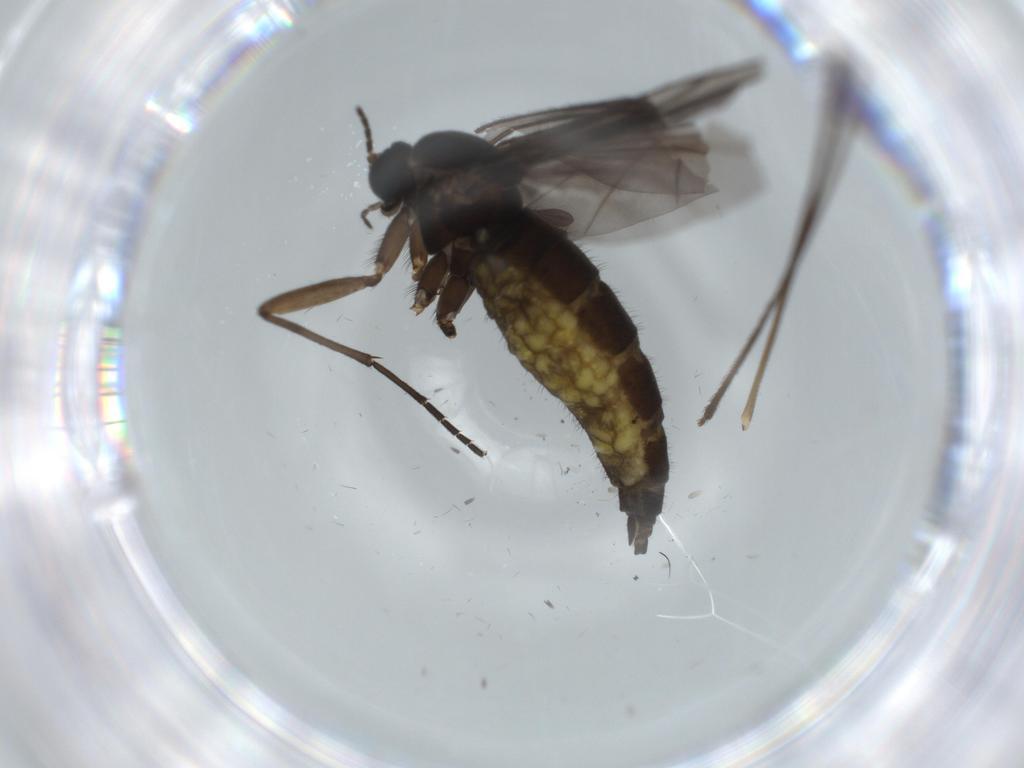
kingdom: Animalia
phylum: Arthropoda
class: Insecta
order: Diptera
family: Sciaridae
